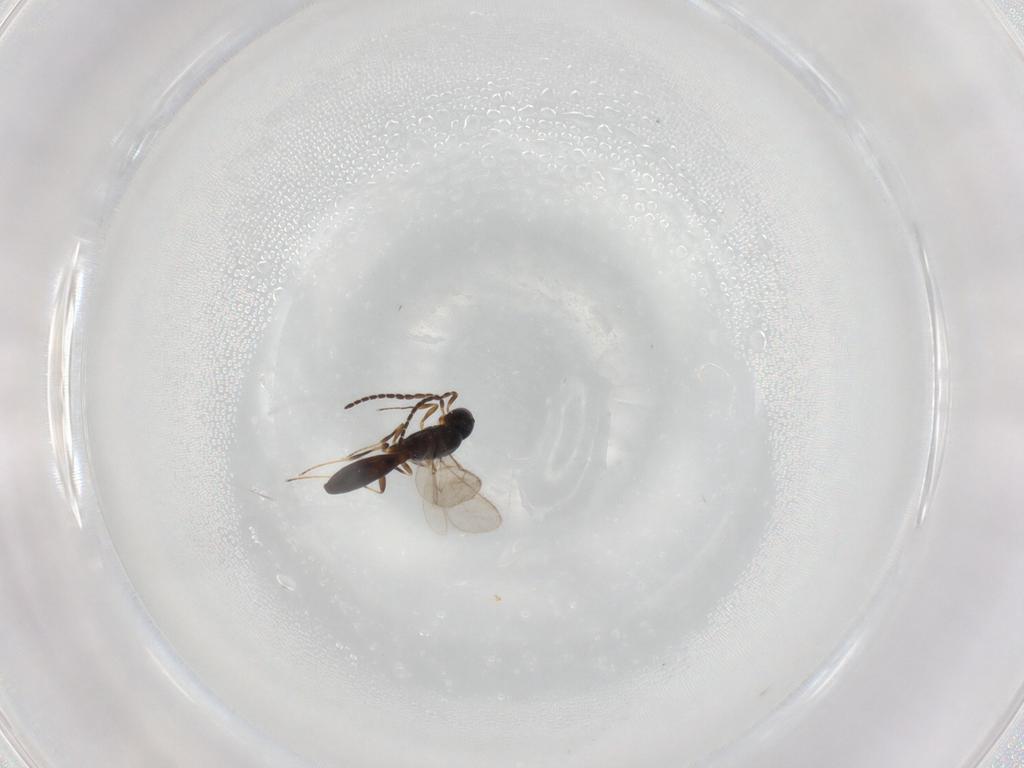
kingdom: Animalia
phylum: Arthropoda
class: Insecta
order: Hymenoptera
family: Scelionidae
